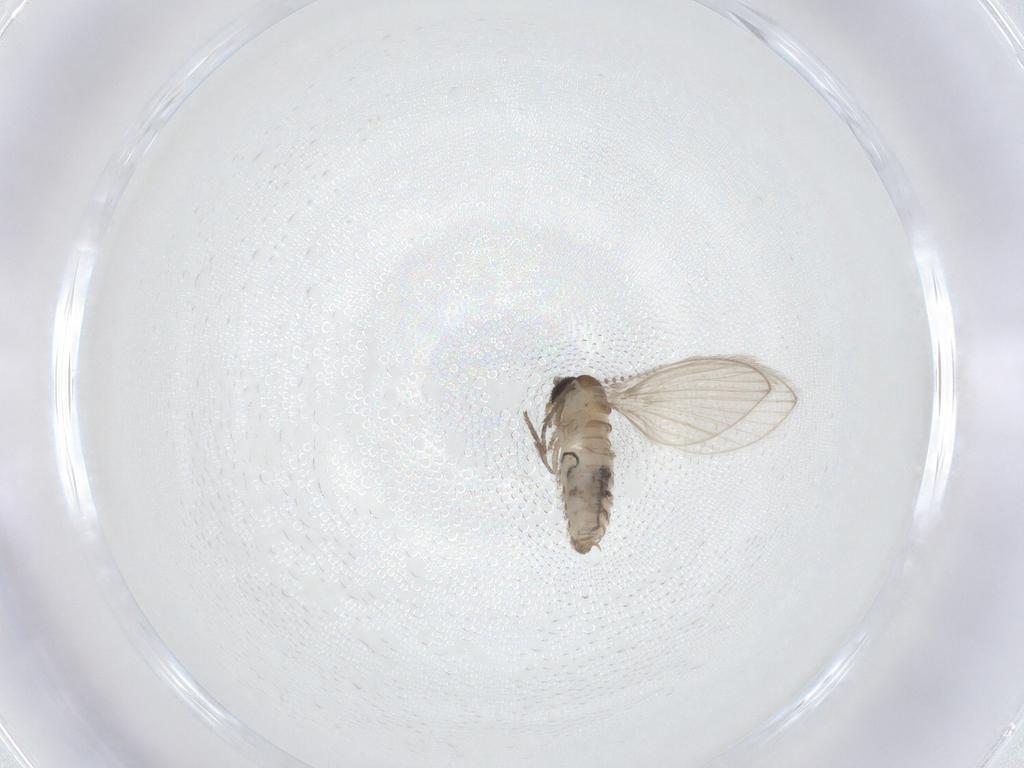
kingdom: Animalia
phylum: Arthropoda
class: Insecta
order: Diptera
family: Psychodidae
